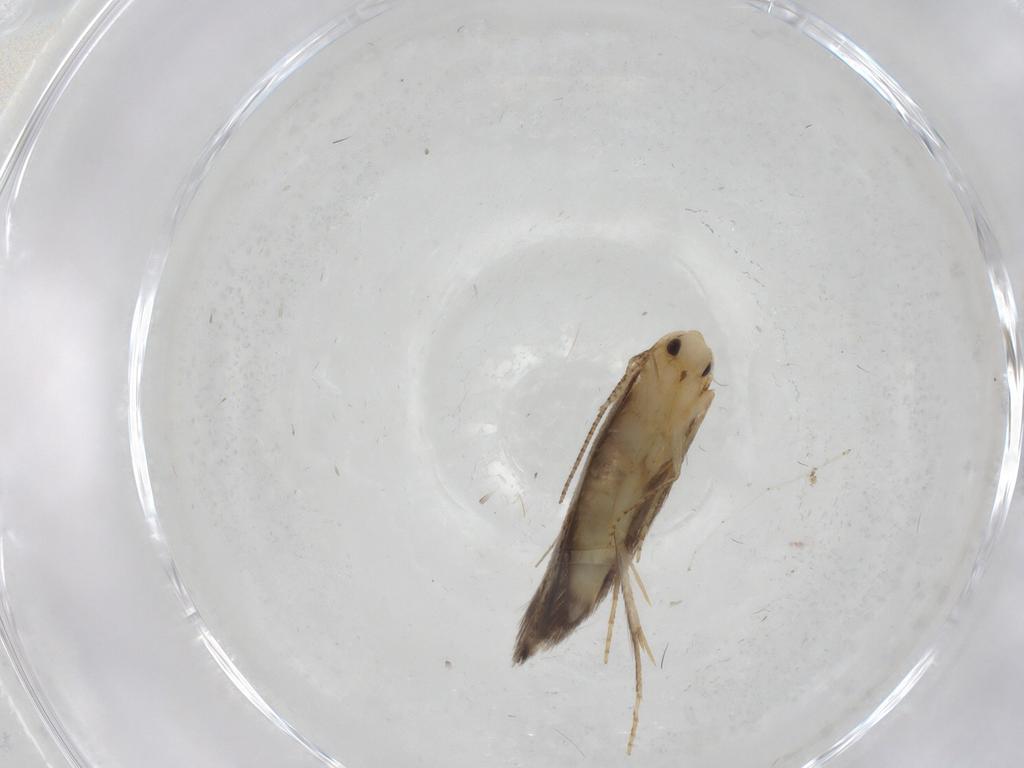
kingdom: Animalia
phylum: Arthropoda
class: Insecta
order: Lepidoptera
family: Bucculatricidae
